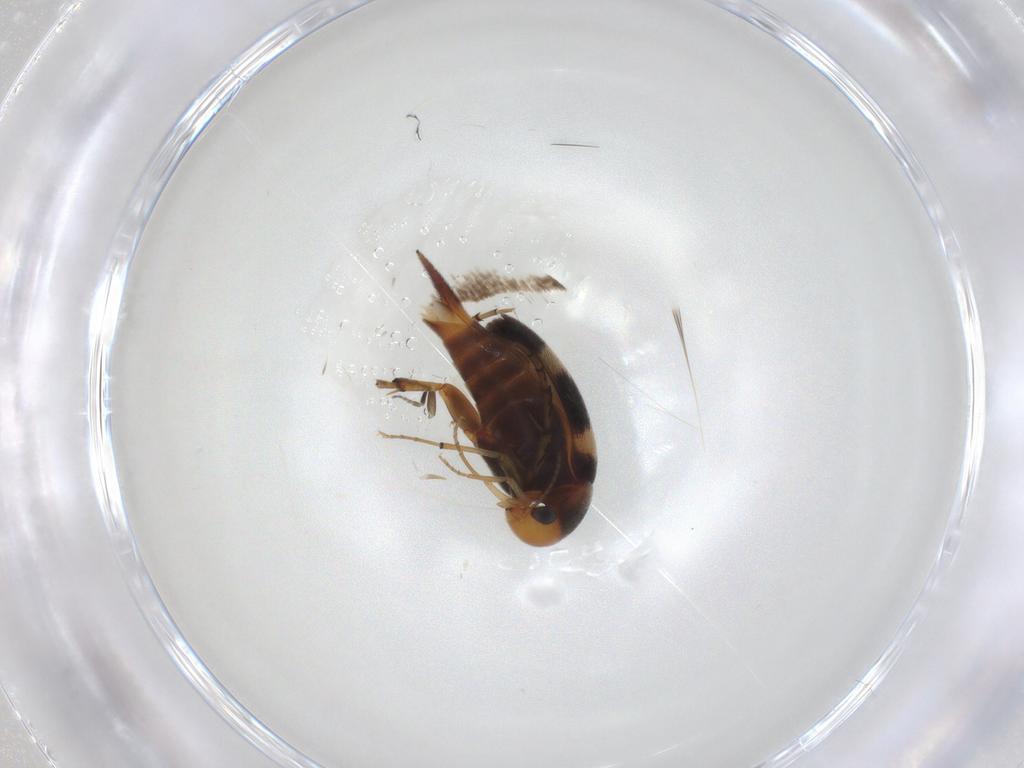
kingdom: Animalia
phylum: Arthropoda
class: Insecta
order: Coleoptera
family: Mordellidae
